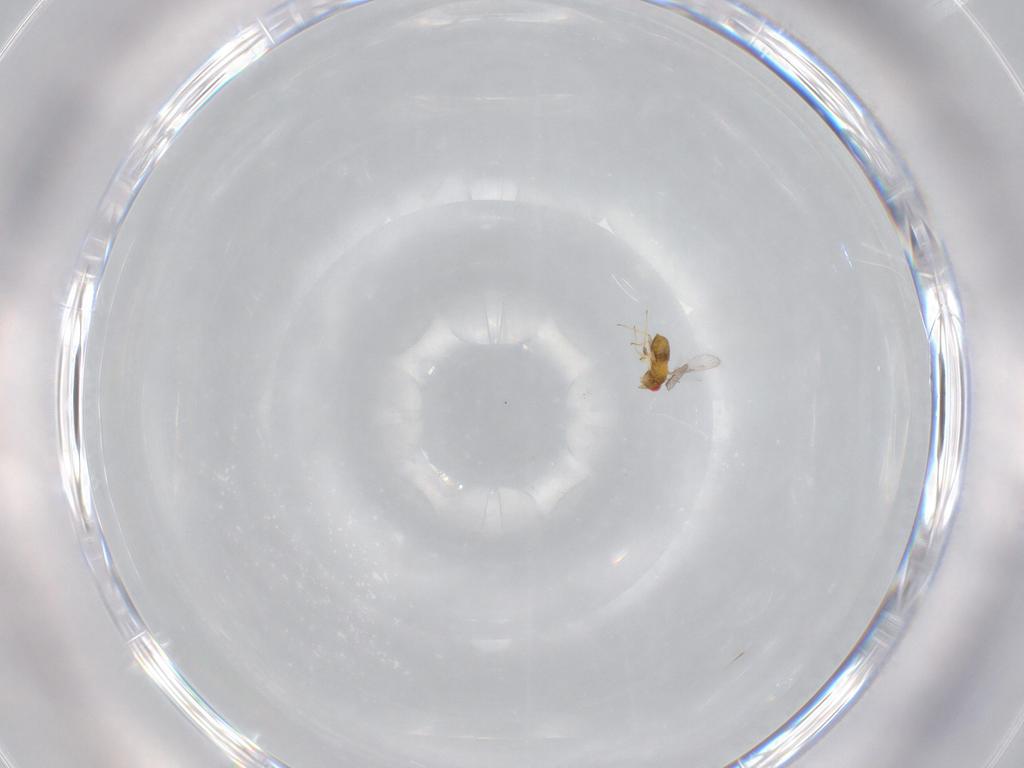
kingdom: Animalia
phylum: Arthropoda
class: Insecta
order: Hymenoptera
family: Trichogrammatidae
